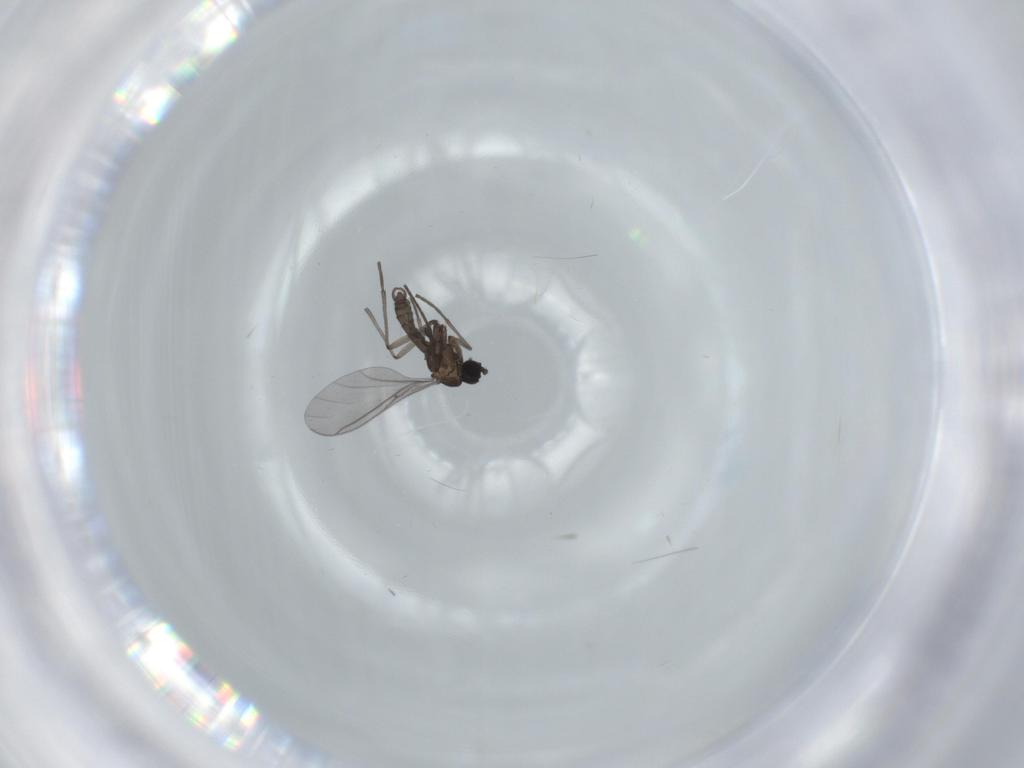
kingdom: Animalia
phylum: Arthropoda
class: Insecta
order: Diptera
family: Sciaridae
